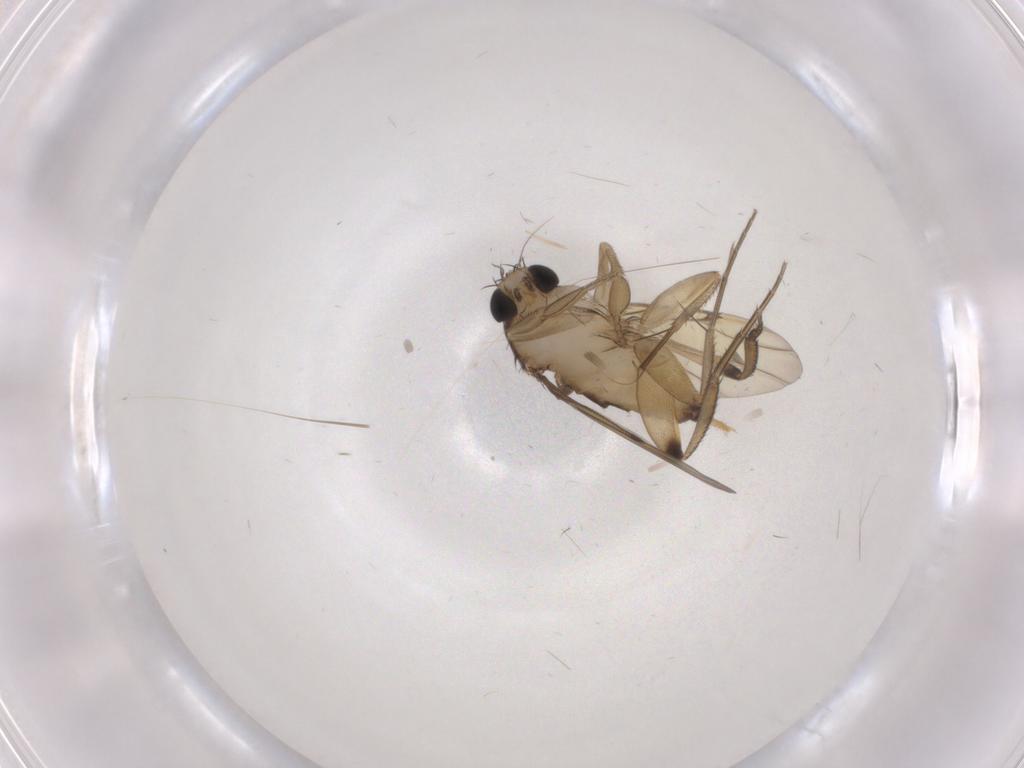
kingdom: Animalia
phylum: Arthropoda
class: Insecta
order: Diptera
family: Phoridae
